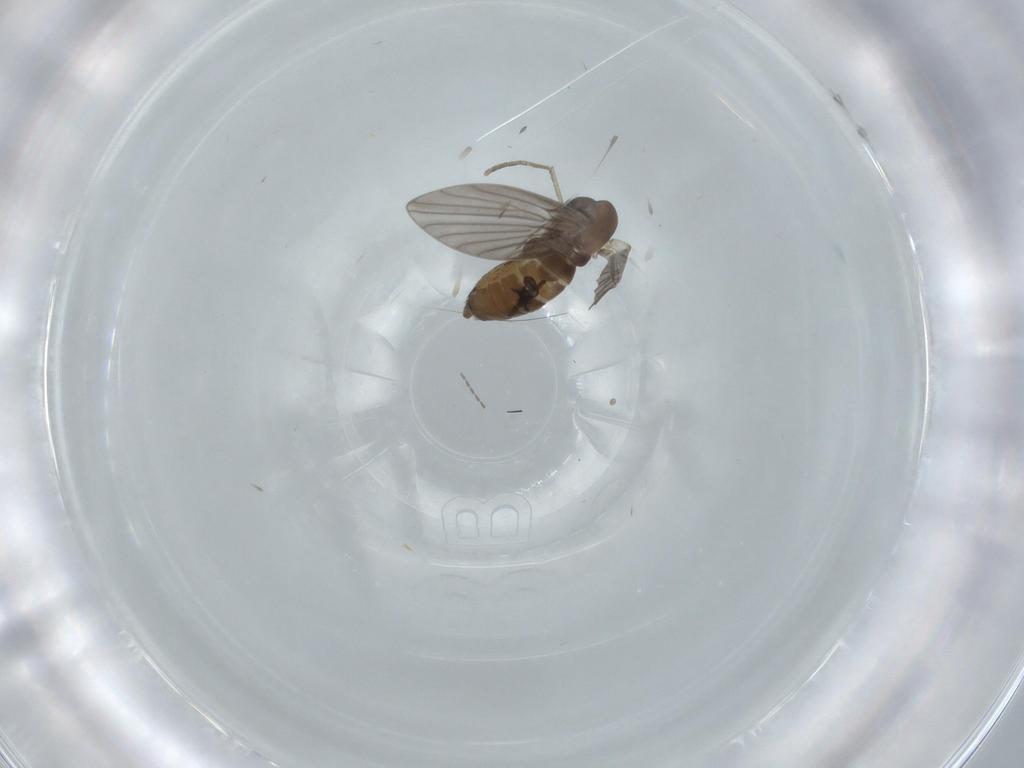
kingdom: Animalia
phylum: Arthropoda
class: Insecta
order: Diptera
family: Psychodidae
